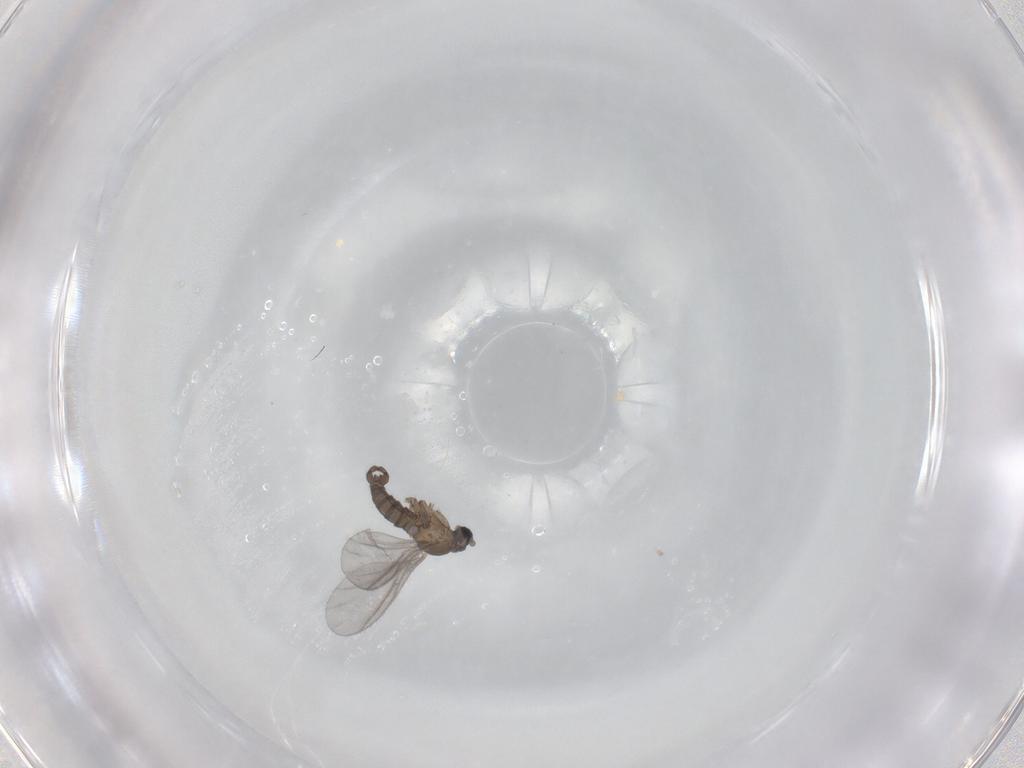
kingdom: Animalia
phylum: Arthropoda
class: Insecta
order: Diptera
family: Sciaridae
